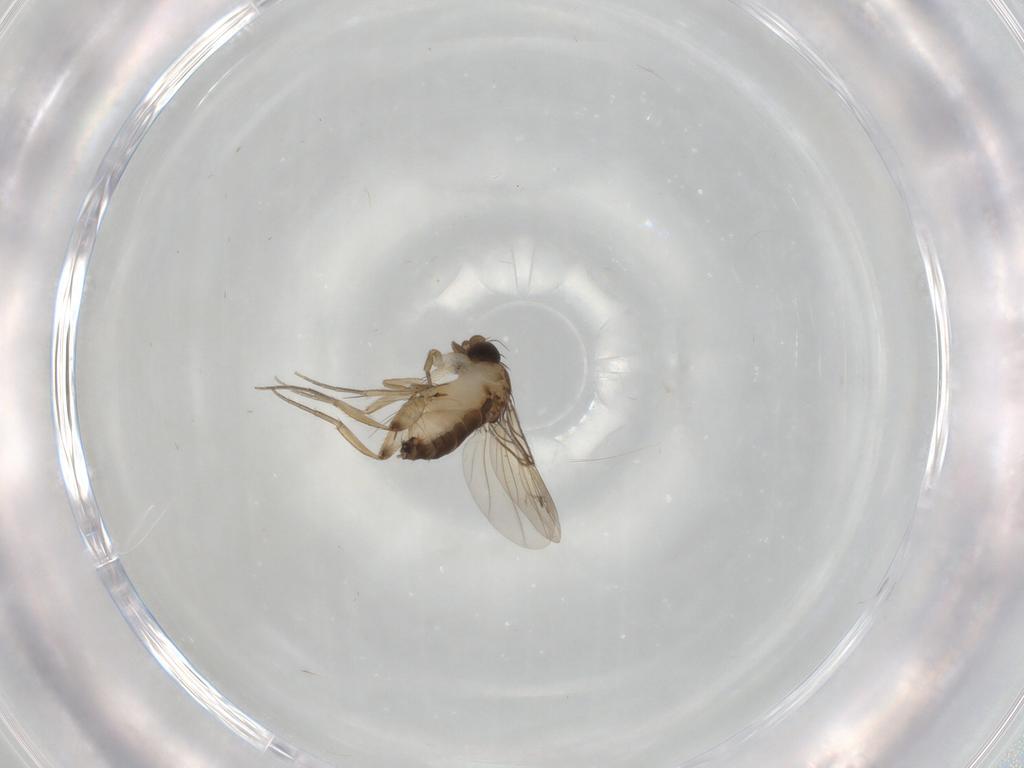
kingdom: Animalia
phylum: Arthropoda
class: Insecta
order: Diptera
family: Phoridae
